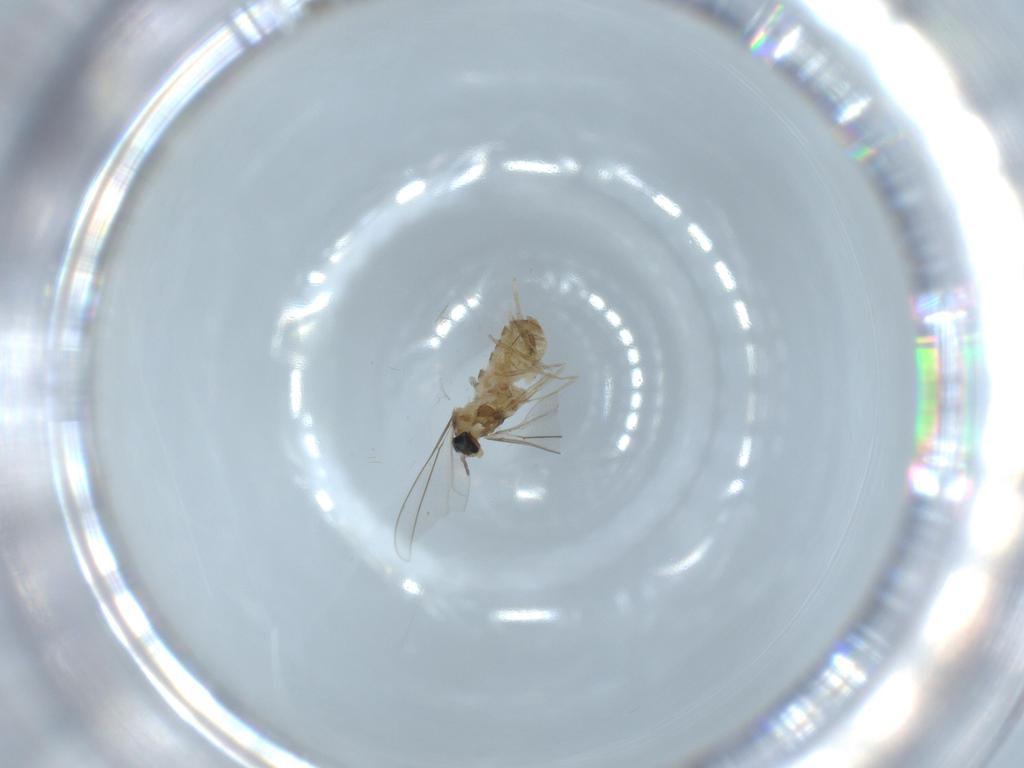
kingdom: Animalia
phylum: Arthropoda
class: Insecta
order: Diptera
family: Cecidomyiidae
